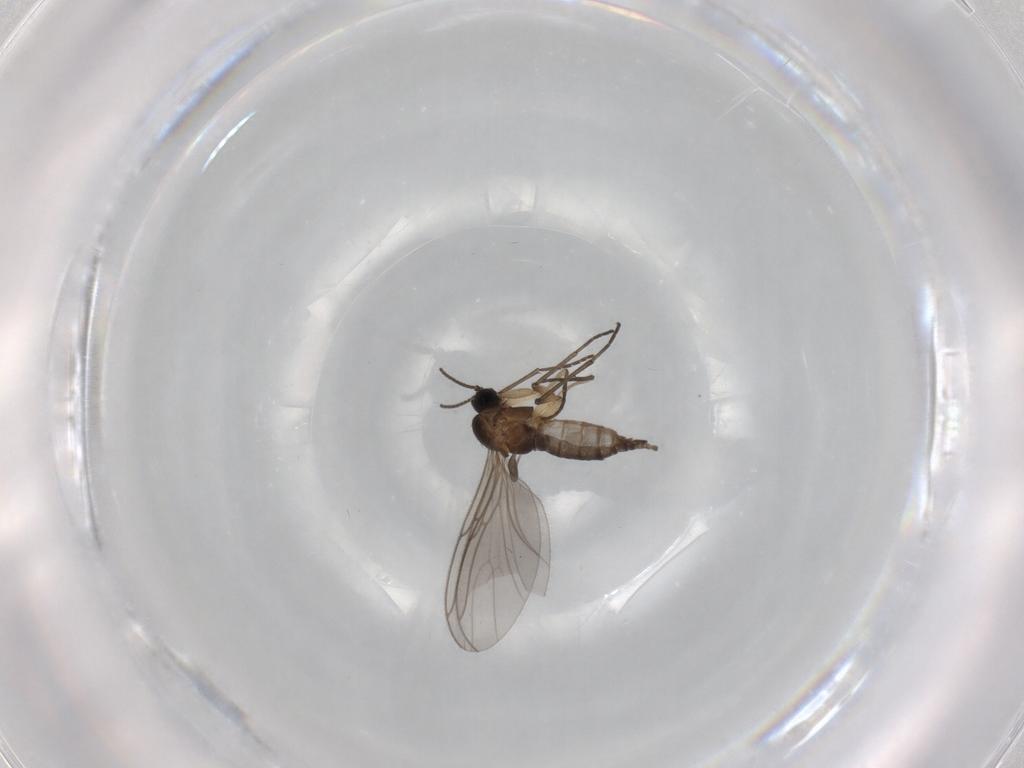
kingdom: Animalia
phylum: Arthropoda
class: Insecta
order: Diptera
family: Sciaridae
